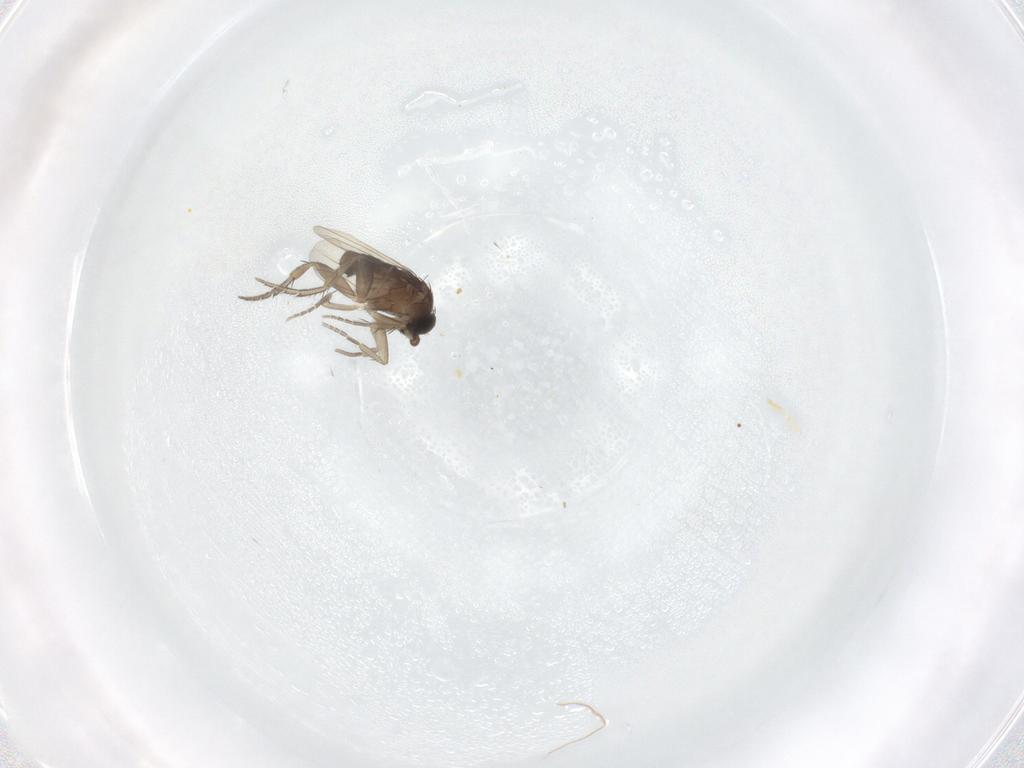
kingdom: Animalia
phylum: Arthropoda
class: Insecta
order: Diptera
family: Phoridae
